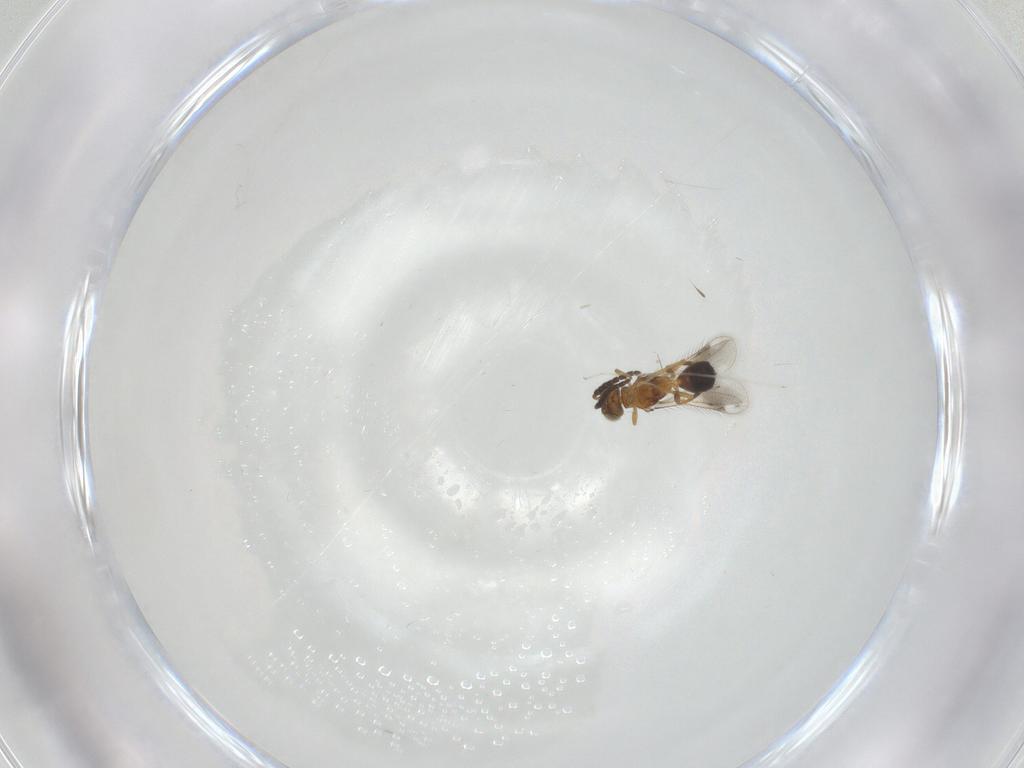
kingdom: Animalia
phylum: Arthropoda
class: Insecta
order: Hymenoptera
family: Pteromalidae
